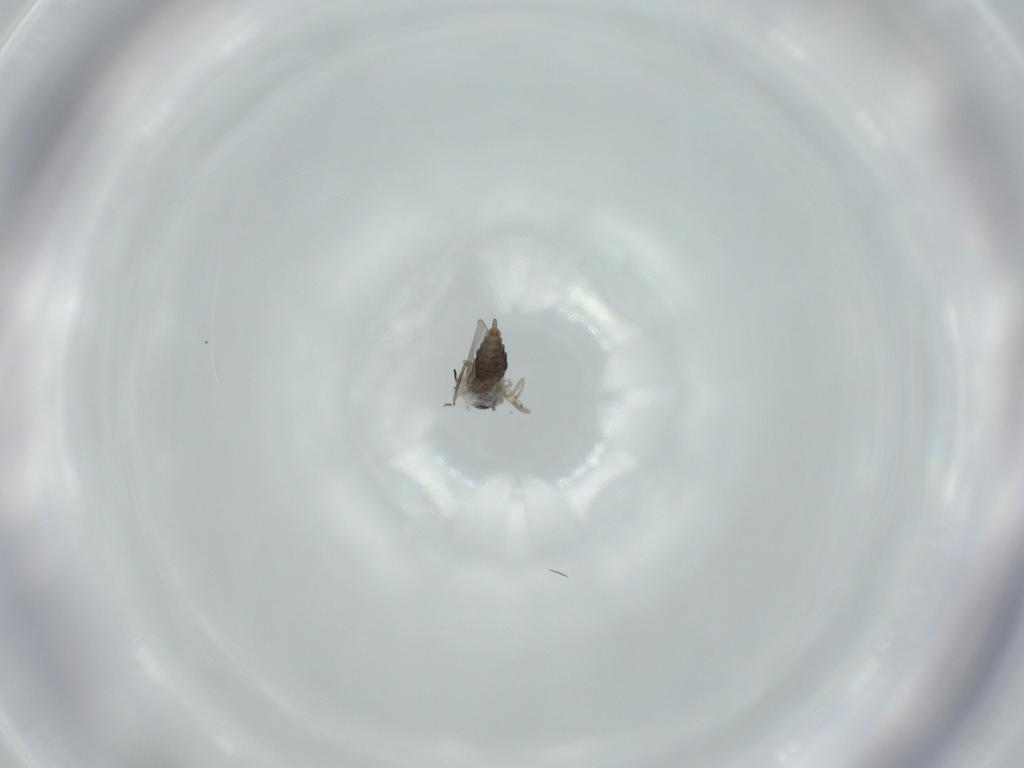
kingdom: Animalia
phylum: Arthropoda
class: Insecta
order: Diptera
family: Cecidomyiidae
